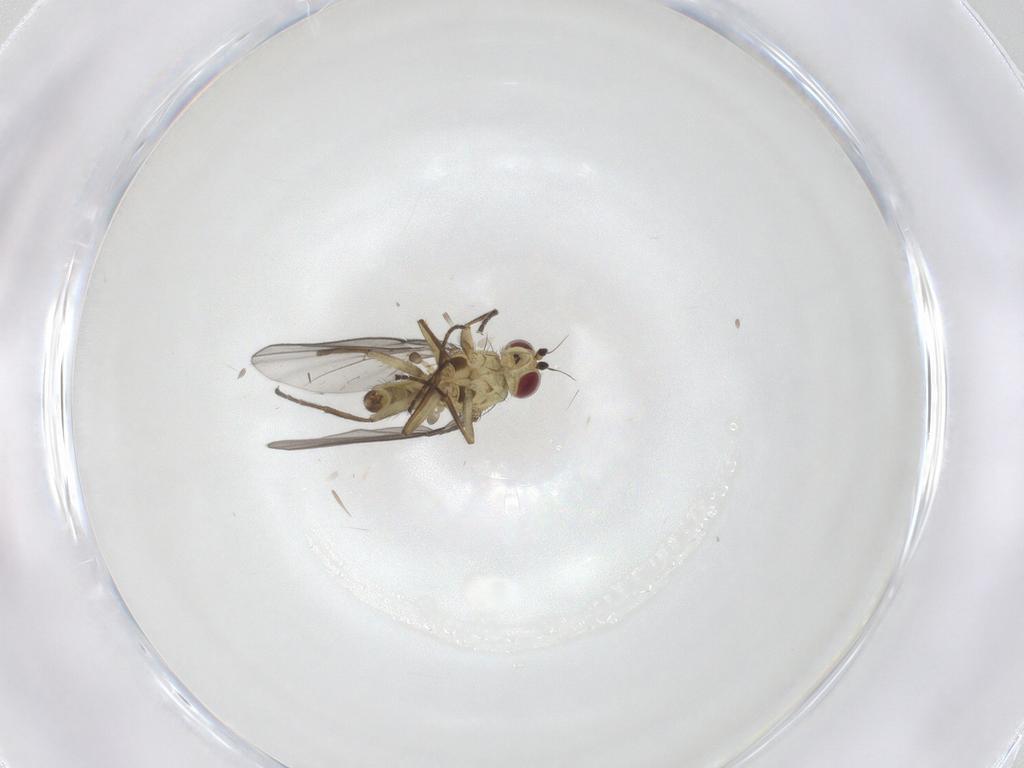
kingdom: Animalia
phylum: Arthropoda
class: Insecta
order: Diptera
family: Agromyzidae
